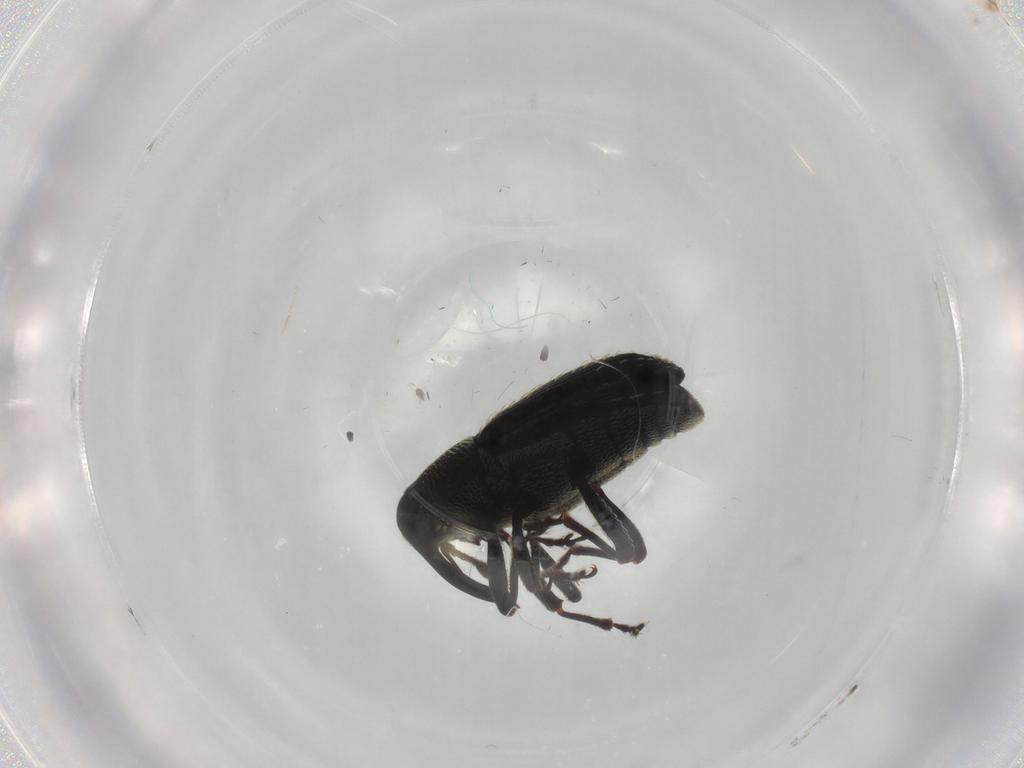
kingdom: Animalia
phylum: Arthropoda
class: Insecta
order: Coleoptera
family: Curculionidae
